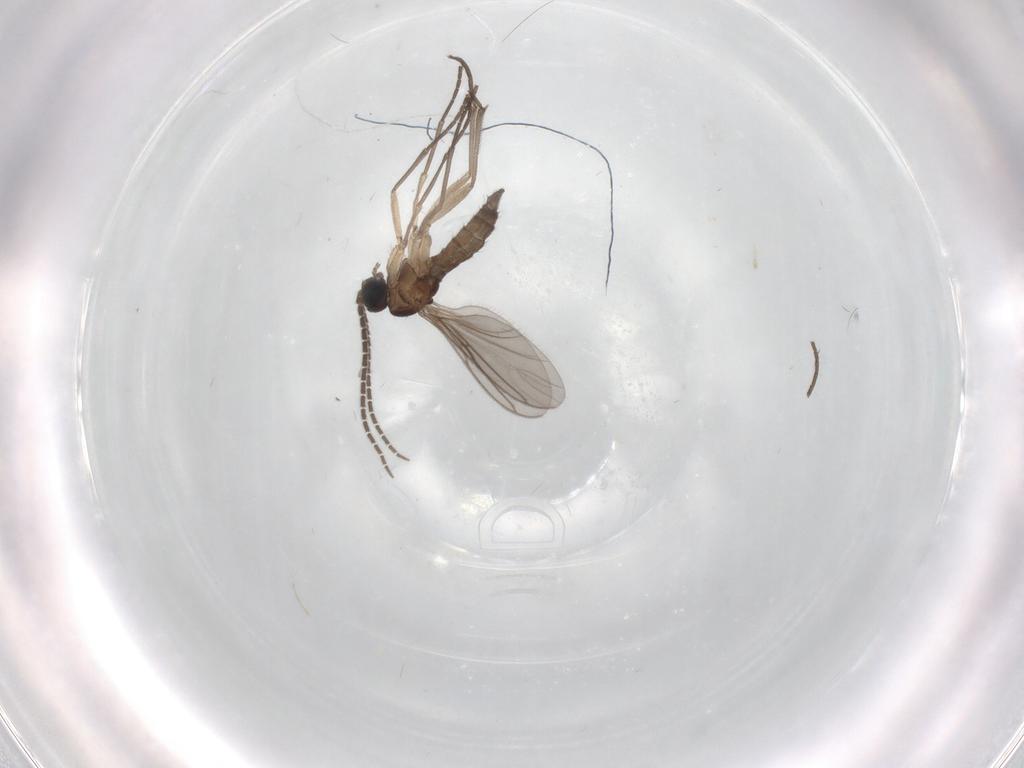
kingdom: Animalia
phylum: Arthropoda
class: Insecta
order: Diptera
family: Sciaridae
